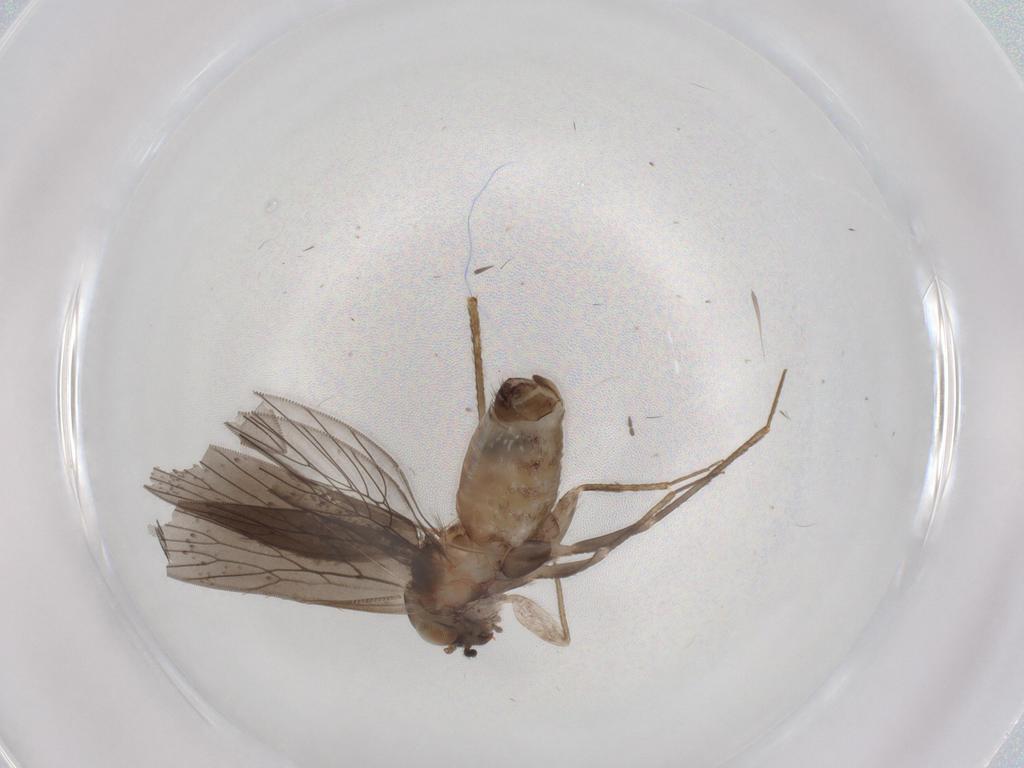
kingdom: Animalia
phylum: Arthropoda
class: Insecta
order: Psocodea
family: Lepidopsocidae
